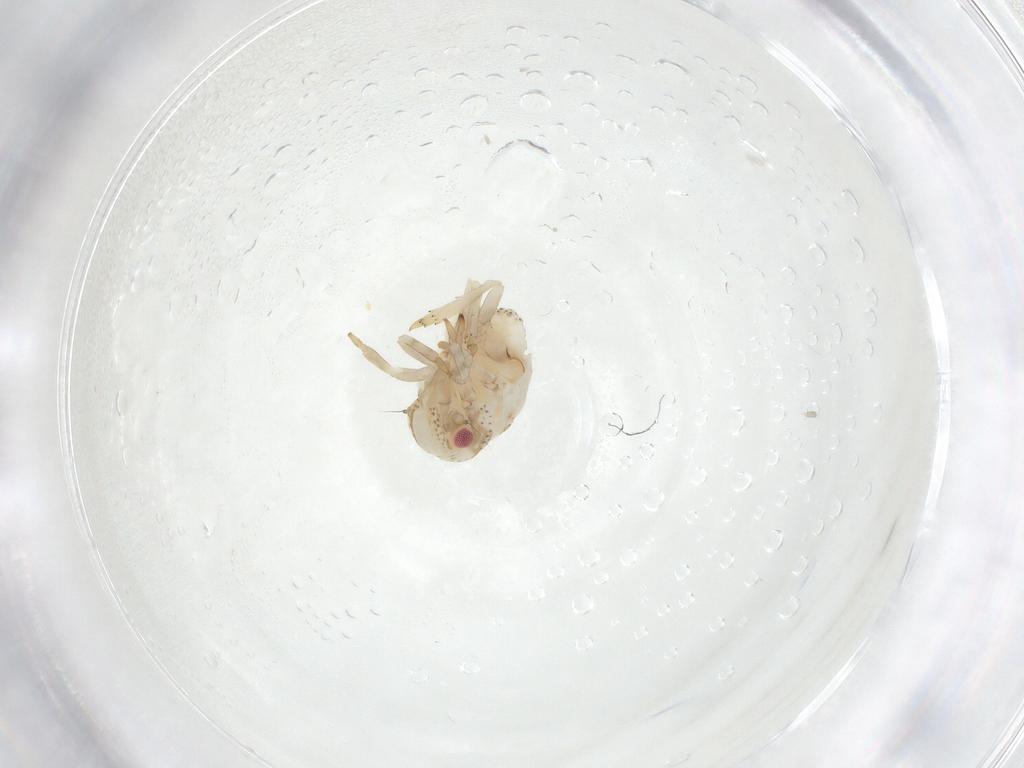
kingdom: Animalia
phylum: Arthropoda
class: Insecta
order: Hemiptera
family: Acanaloniidae
